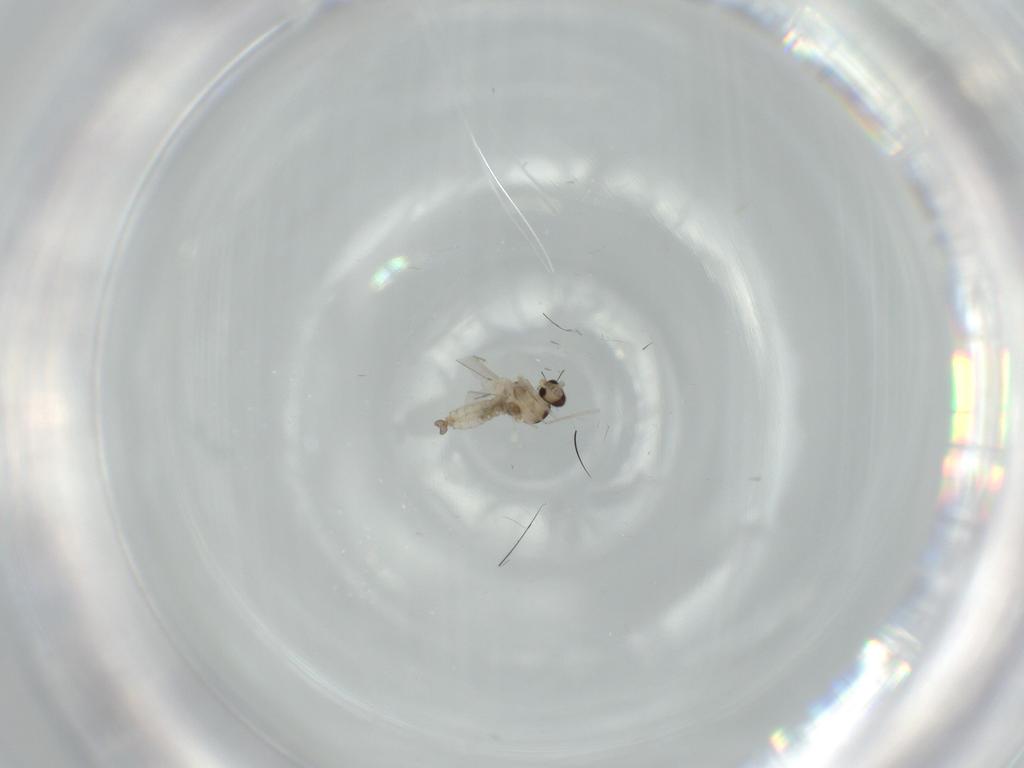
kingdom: Animalia
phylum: Arthropoda
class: Insecta
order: Diptera
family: Cecidomyiidae
